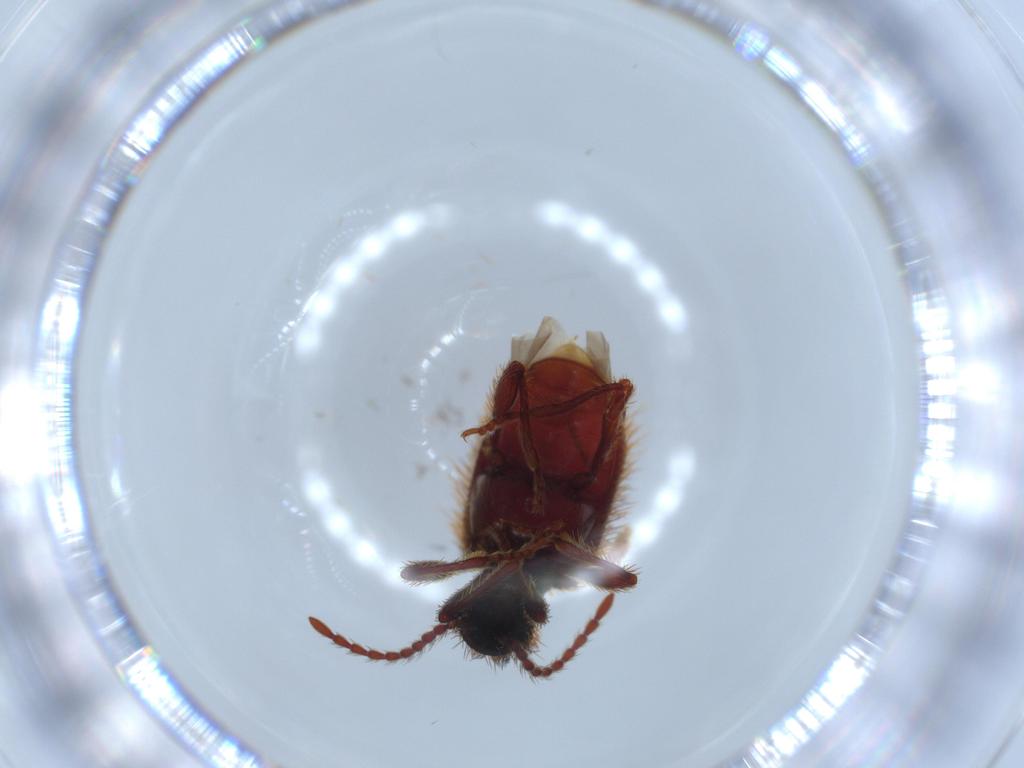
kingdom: Animalia
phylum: Arthropoda
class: Insecta
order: Coleoptera
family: Ptinidae
